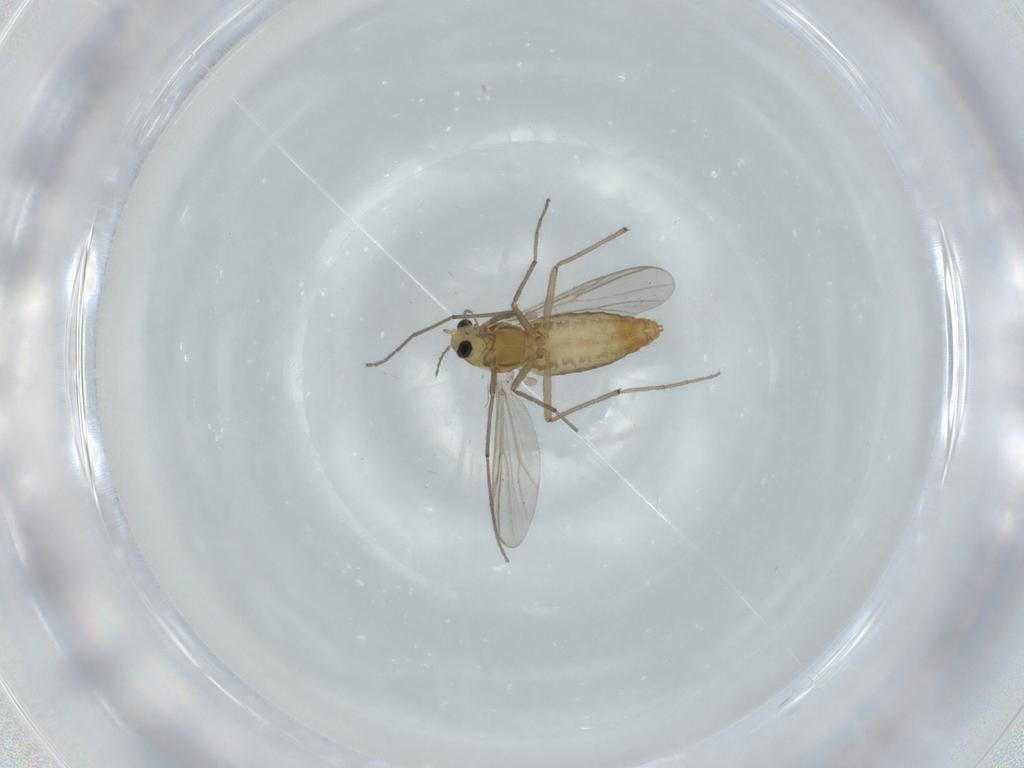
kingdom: Animalia
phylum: Arthropoda
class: Insecta
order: Diptera
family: Chironomidae
